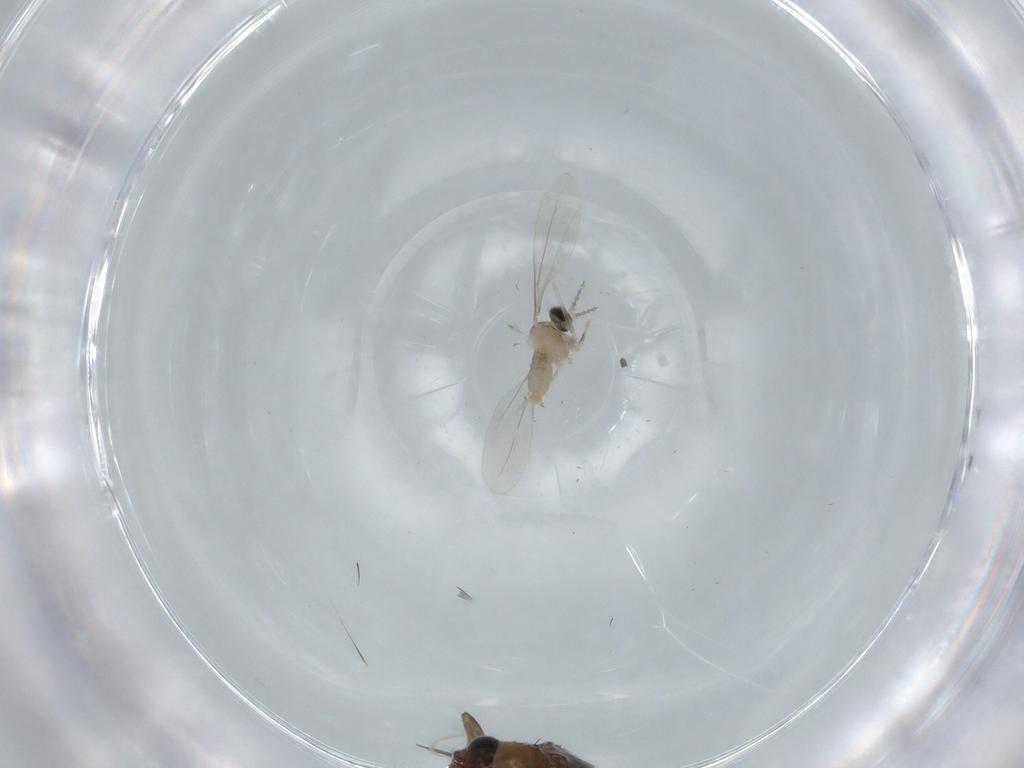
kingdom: Animalia
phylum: Arthropoda
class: Insecta
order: Diptera
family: Phoridae
